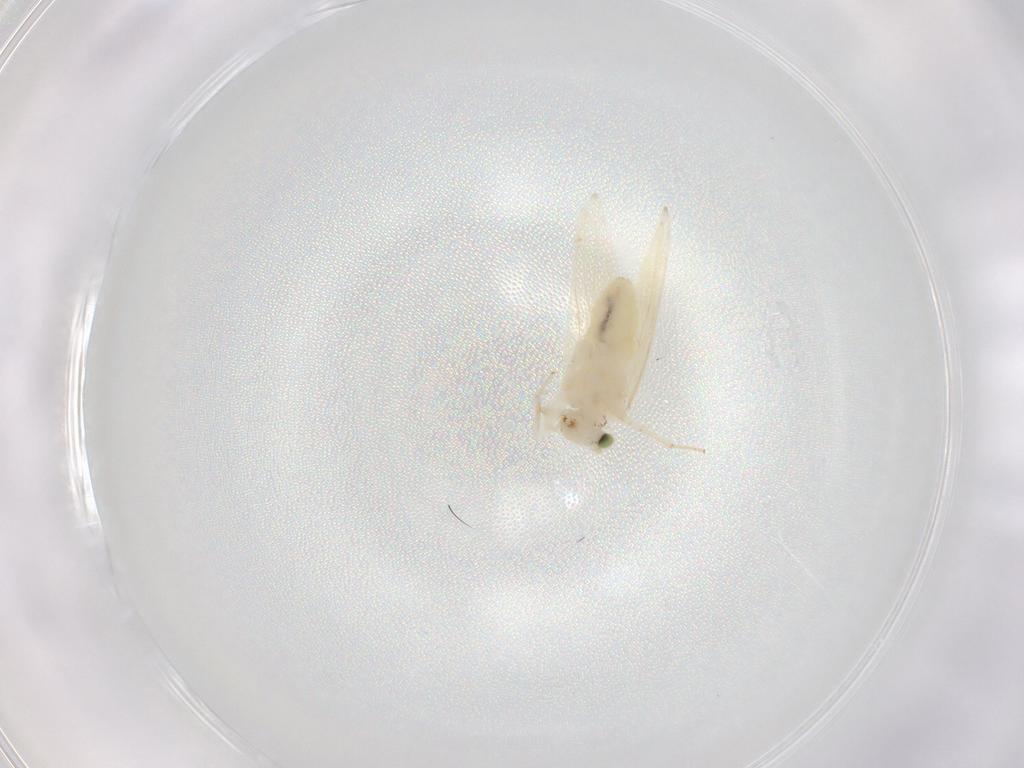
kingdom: Animalia
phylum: Arthropoda
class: Insecta
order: Psocodea
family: Lepidopsocidae
